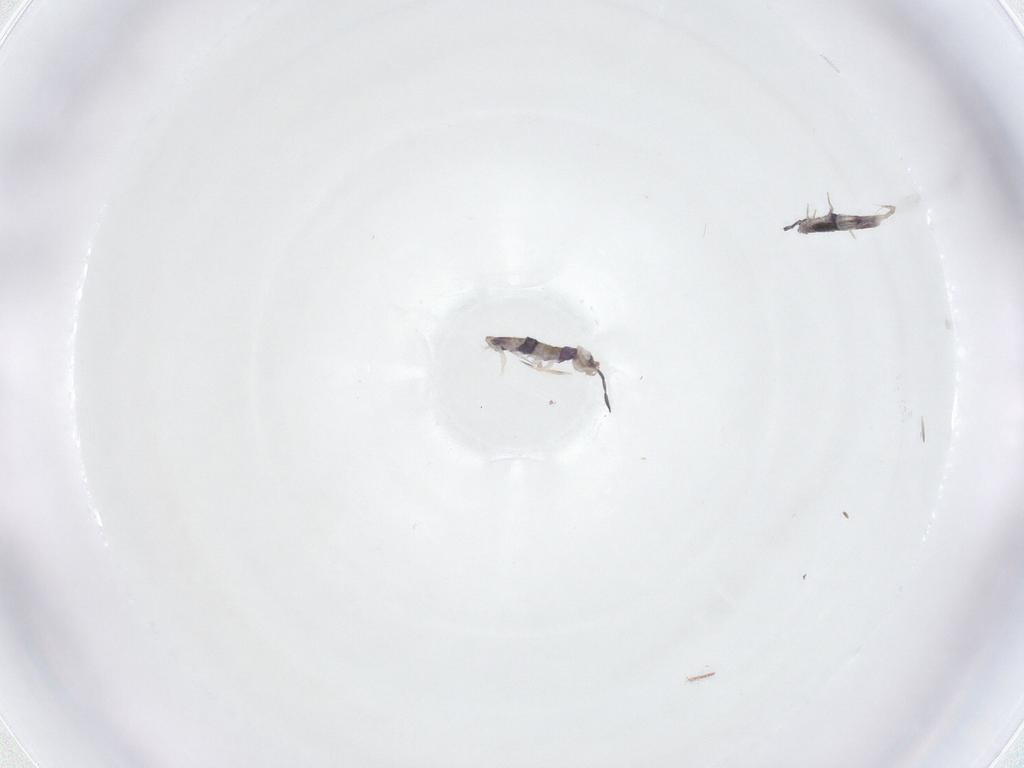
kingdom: Animalia
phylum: Arthropoda
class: Collembola
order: Entomobryomorpha
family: Entomobryidae
